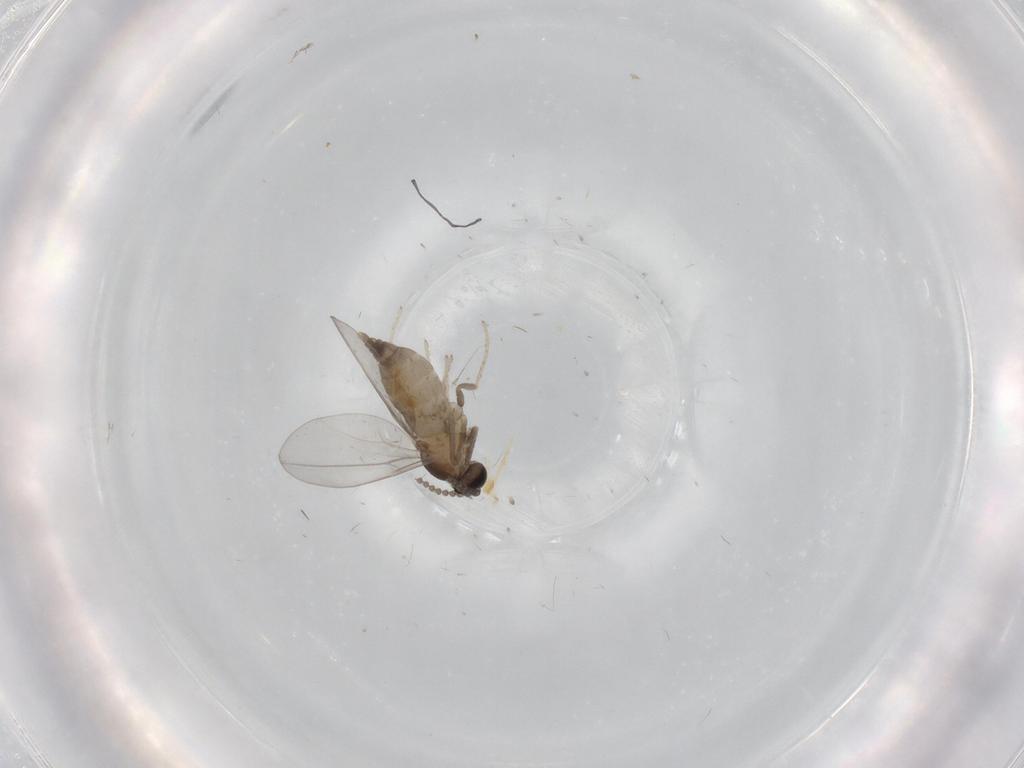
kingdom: Animalia
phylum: Arthropoda
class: Insecta
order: Diptera
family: Cecidomyiidae
